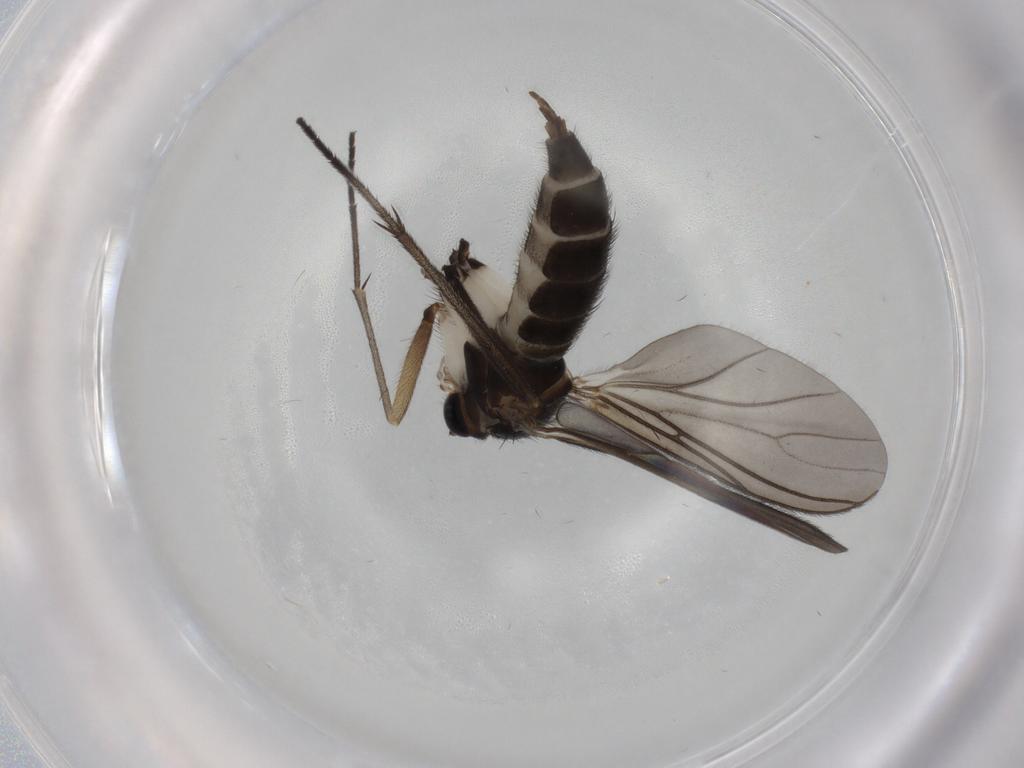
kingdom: Animalia
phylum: Arthropoda
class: Insecta
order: Diptera
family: Sciaridae
